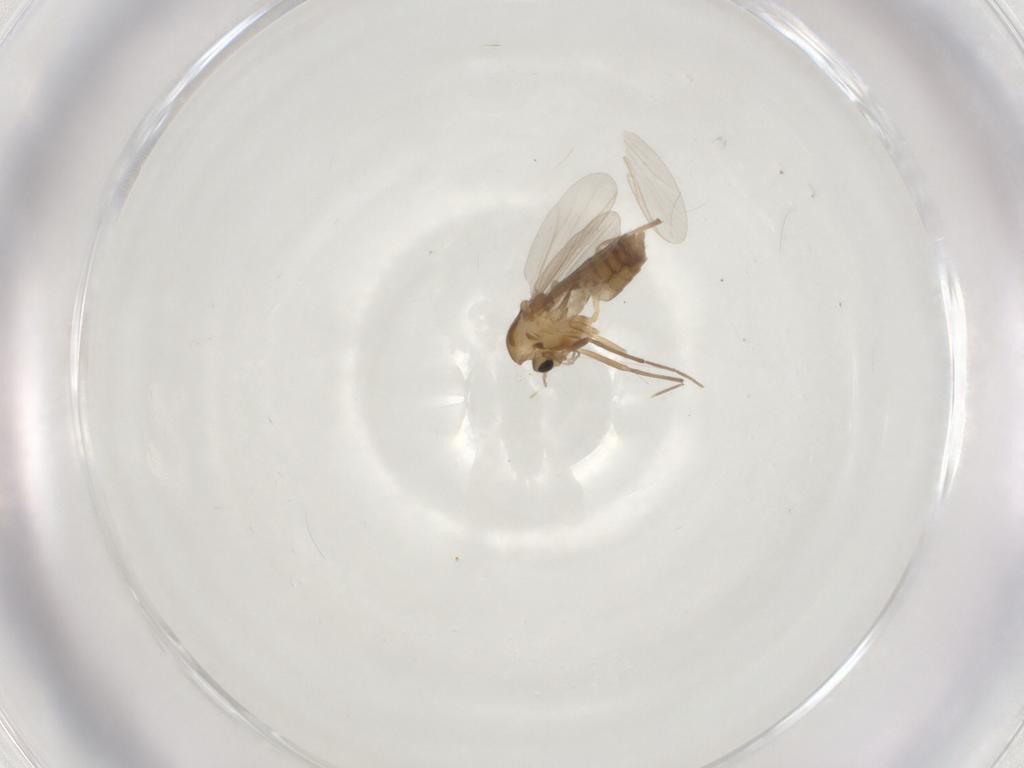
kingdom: Animalia
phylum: Arthropoda
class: Insecta
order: Diptera
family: Chironomidae
